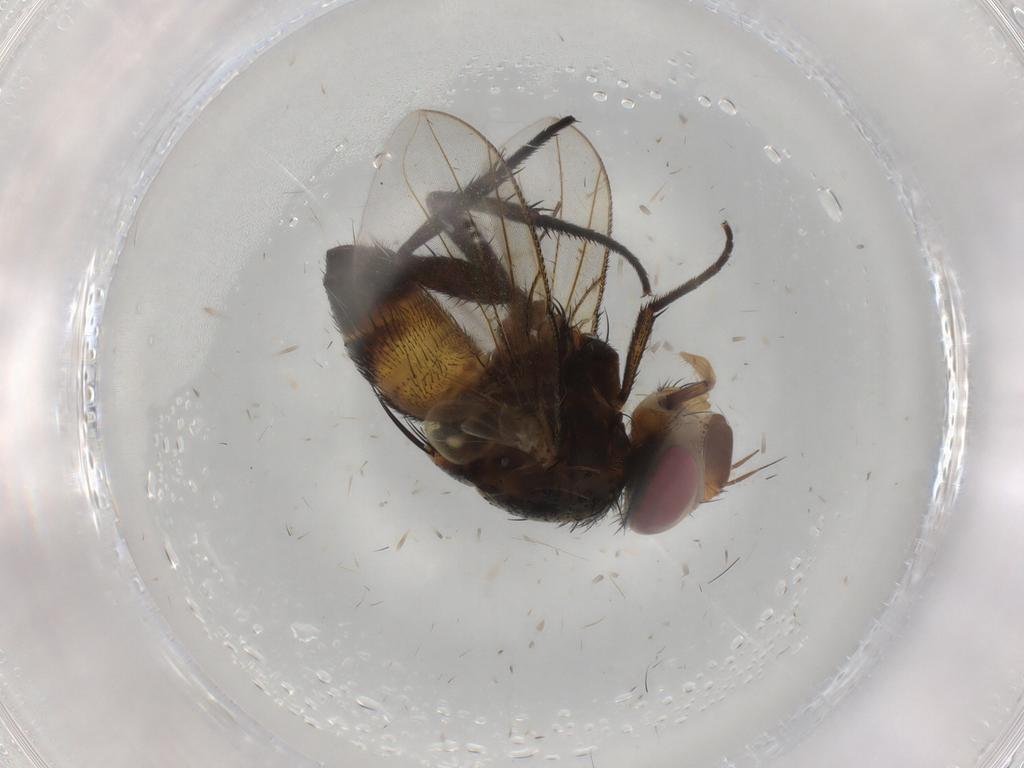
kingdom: Animalia
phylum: Arthropoda
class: Insecta
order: Diptera
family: Tachinidae
